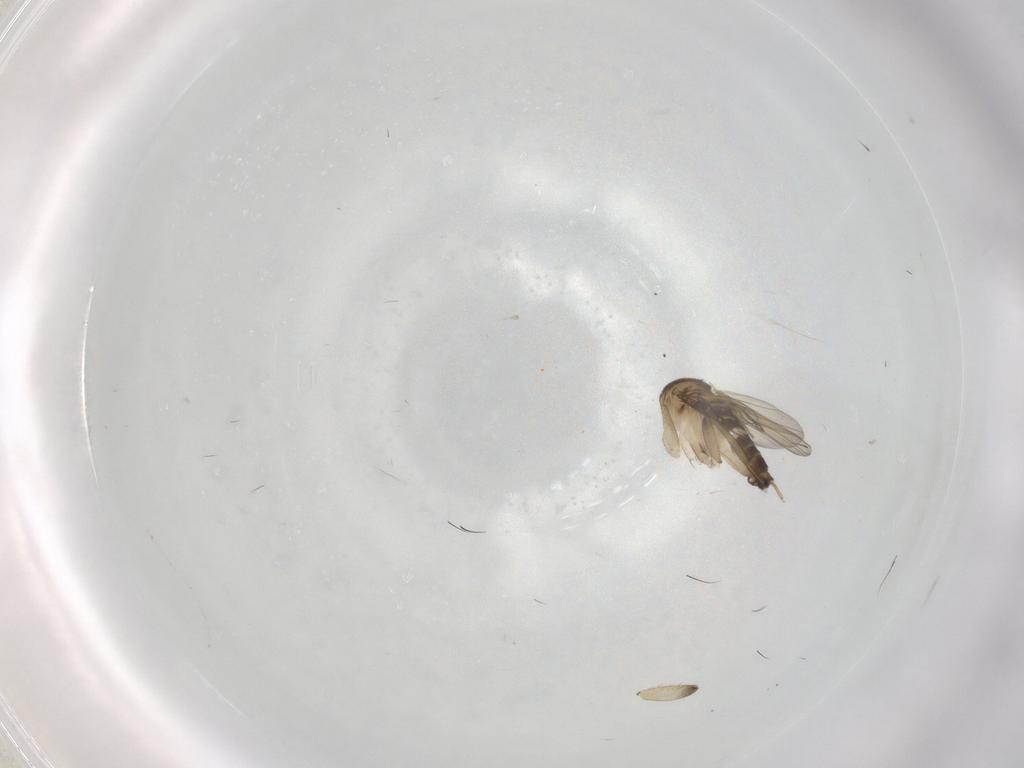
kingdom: Animalia
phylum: Arthropoda
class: Insecta
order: Diptera
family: Phoridae
